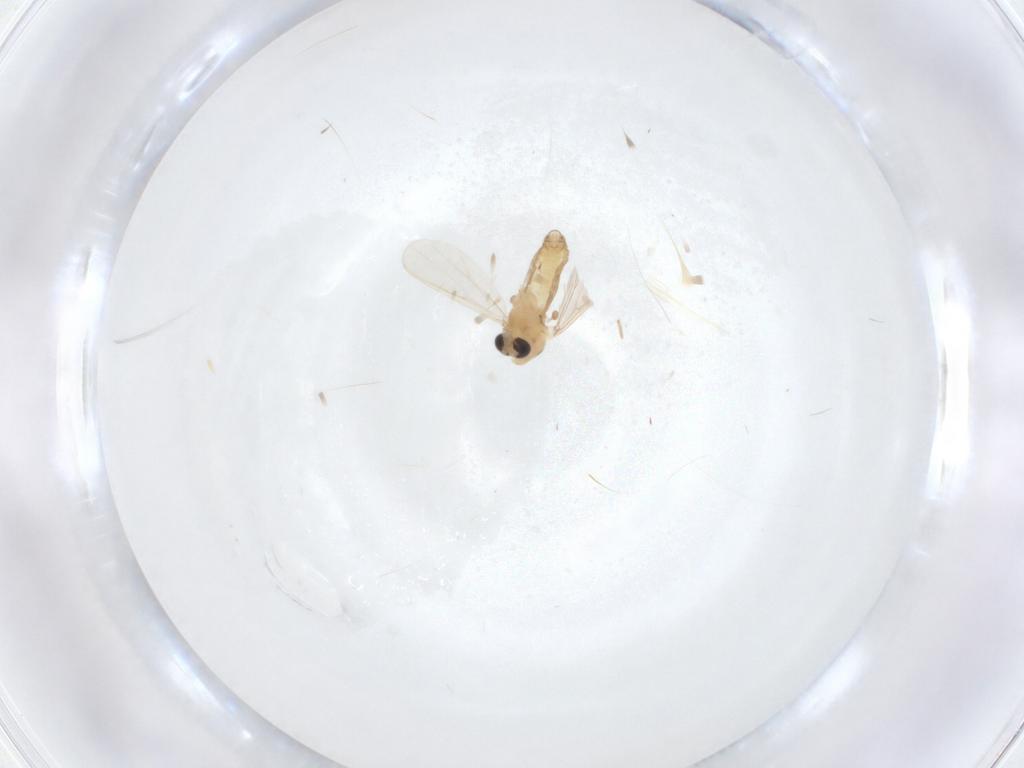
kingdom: Animalia
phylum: Arthropoda
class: Insecta
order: Diptera
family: Chironomidae
